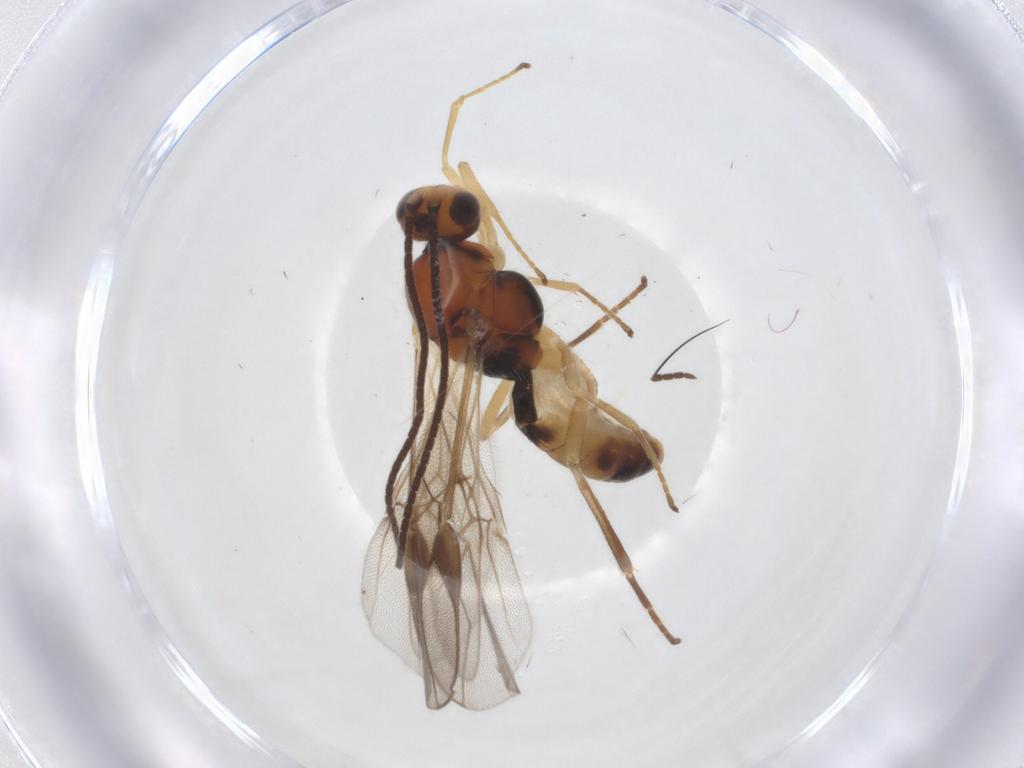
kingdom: Animalia
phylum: Arthropoda
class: Insecta
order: Hymenoptera
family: Braconidae
